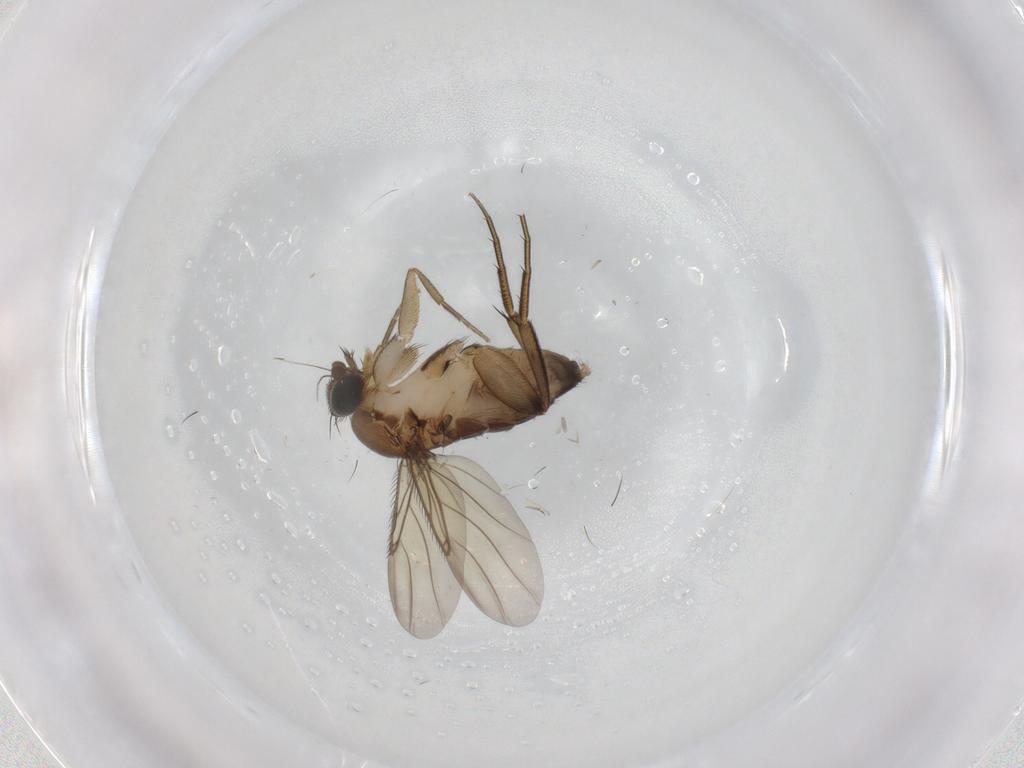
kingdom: Animalia
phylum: Arthropoda
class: Insecta
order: Diptera
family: Phoridae
